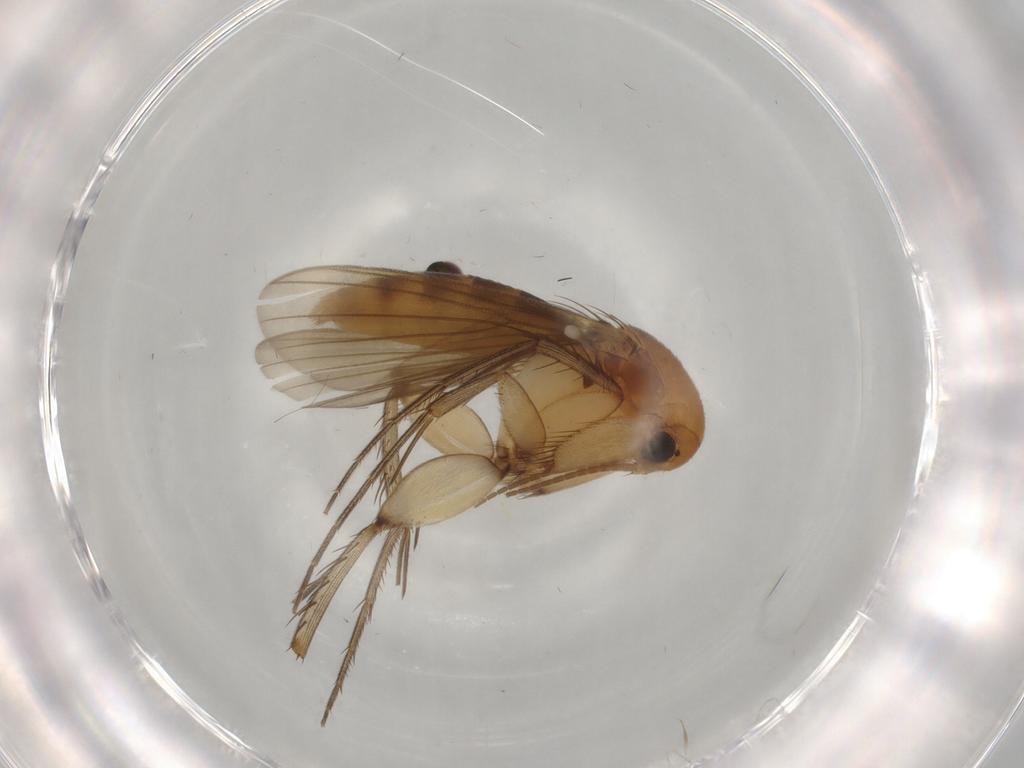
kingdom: Animalia
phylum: Arthropoda
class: Insecta
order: Diptera
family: Mycetophilidae
